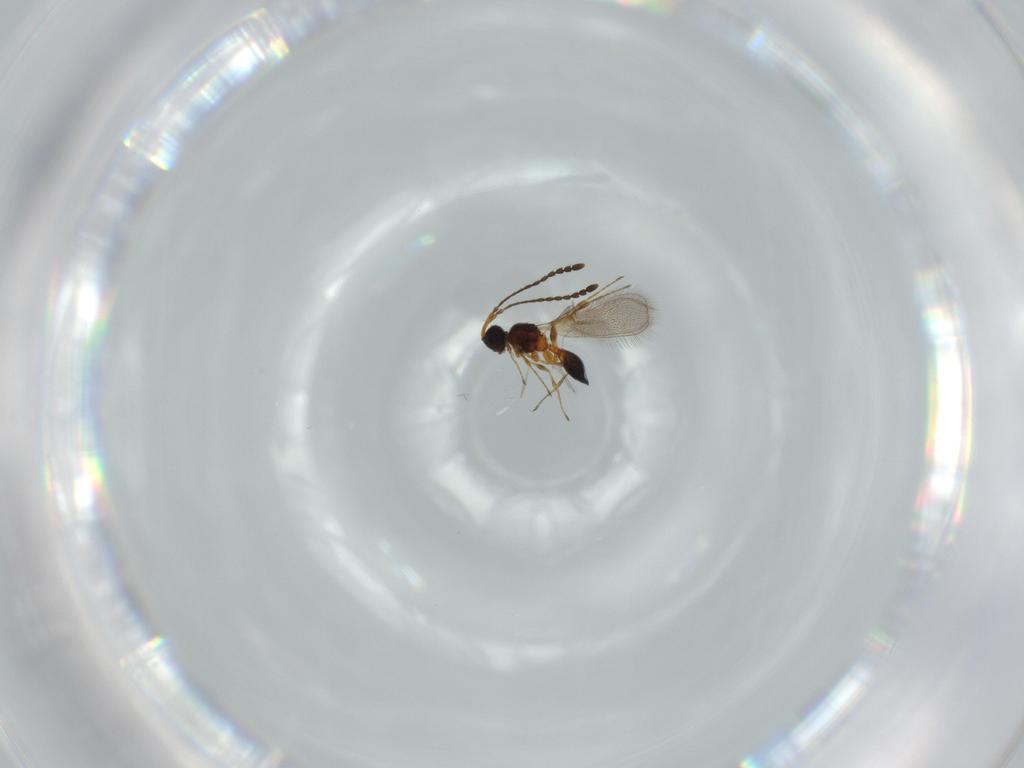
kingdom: Animalia
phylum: Arthropoda
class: Insecta
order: Hymenoptera
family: Diapriidae
